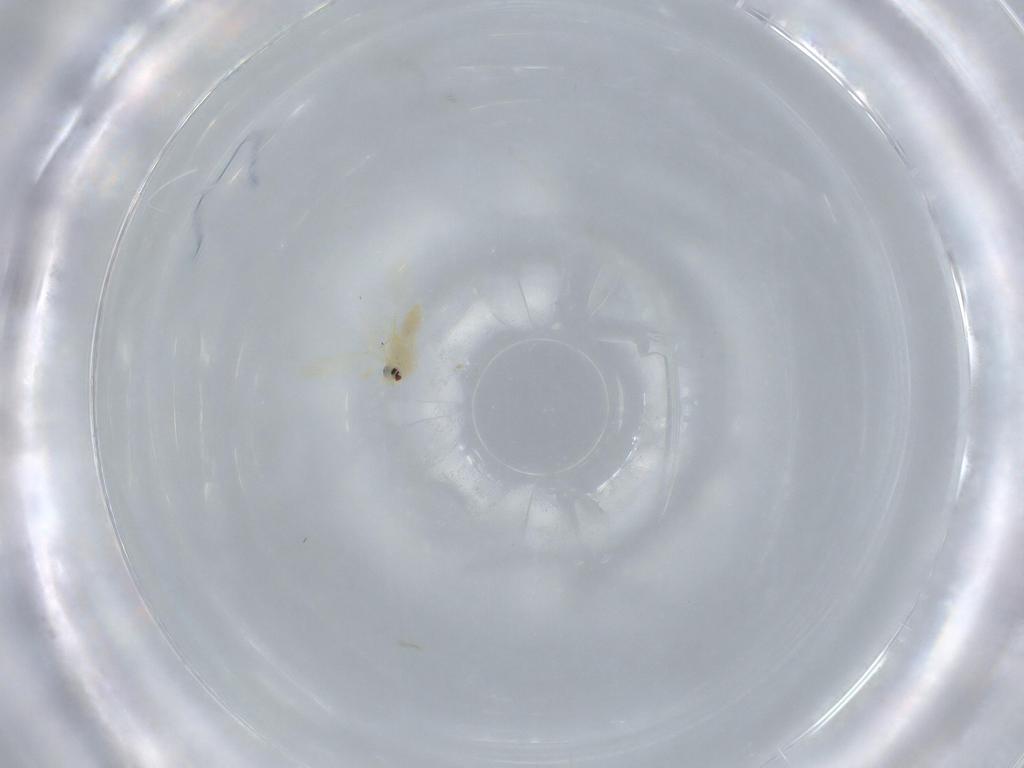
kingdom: Animalia
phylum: Arthropoda
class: Insecta
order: Hemiptera
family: Aleyrodidae
